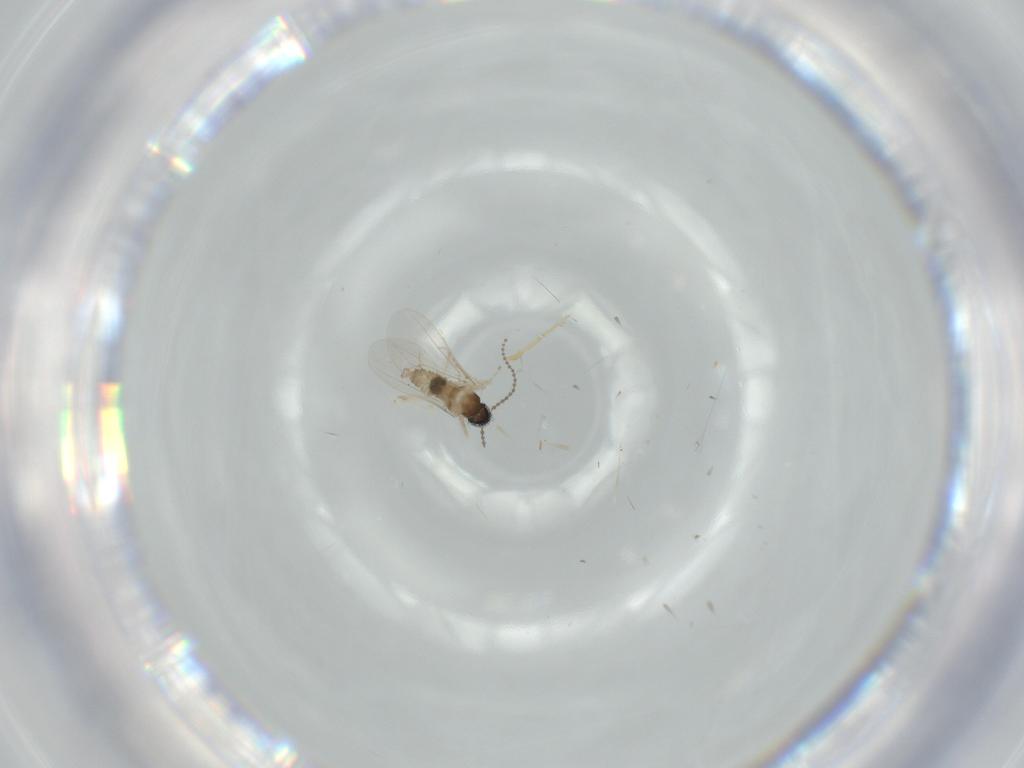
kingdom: Animalia
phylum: Arthropoda
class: Insecta
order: Diptera
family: Cecidomyiidae
